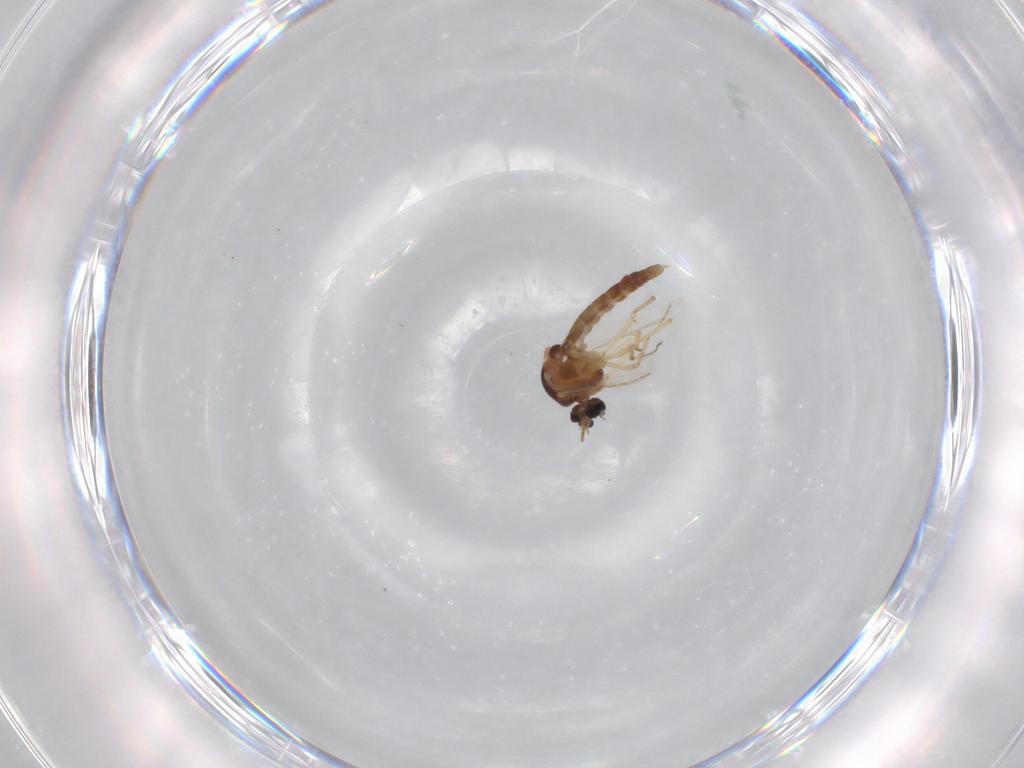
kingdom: Animalia
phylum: Arthropoda
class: Insecta
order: Diptera
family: Ceratopogonidae
